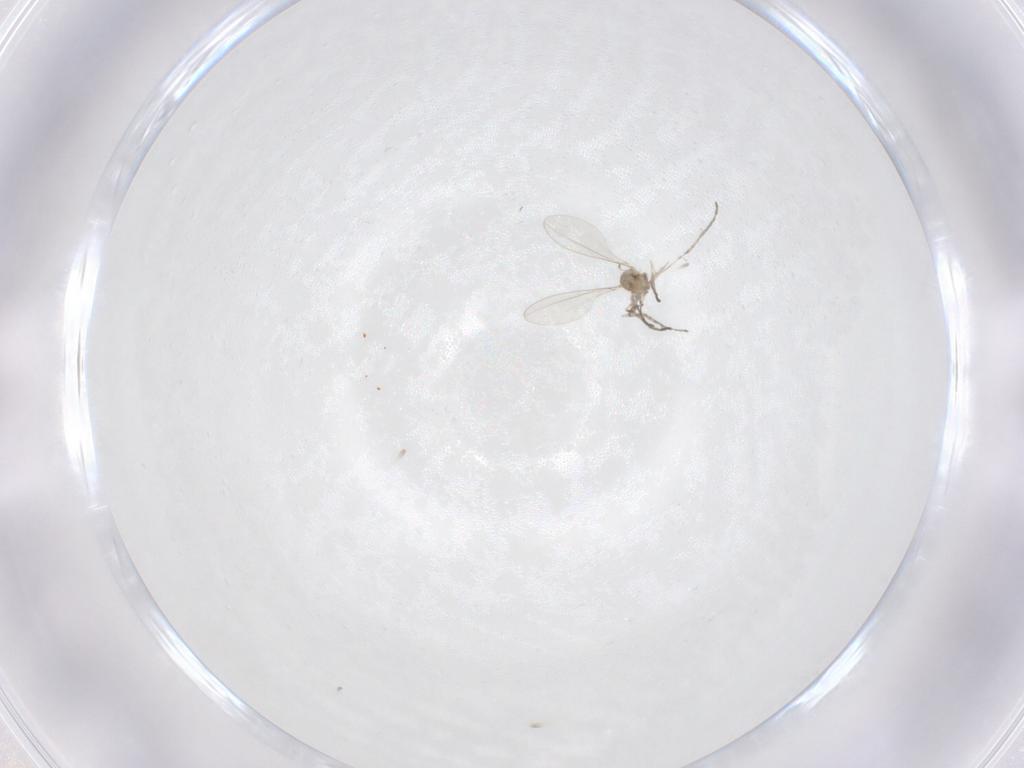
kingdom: Animalia
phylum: Arthropoda
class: Insecta
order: Diptera
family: Cecidomyiidae
